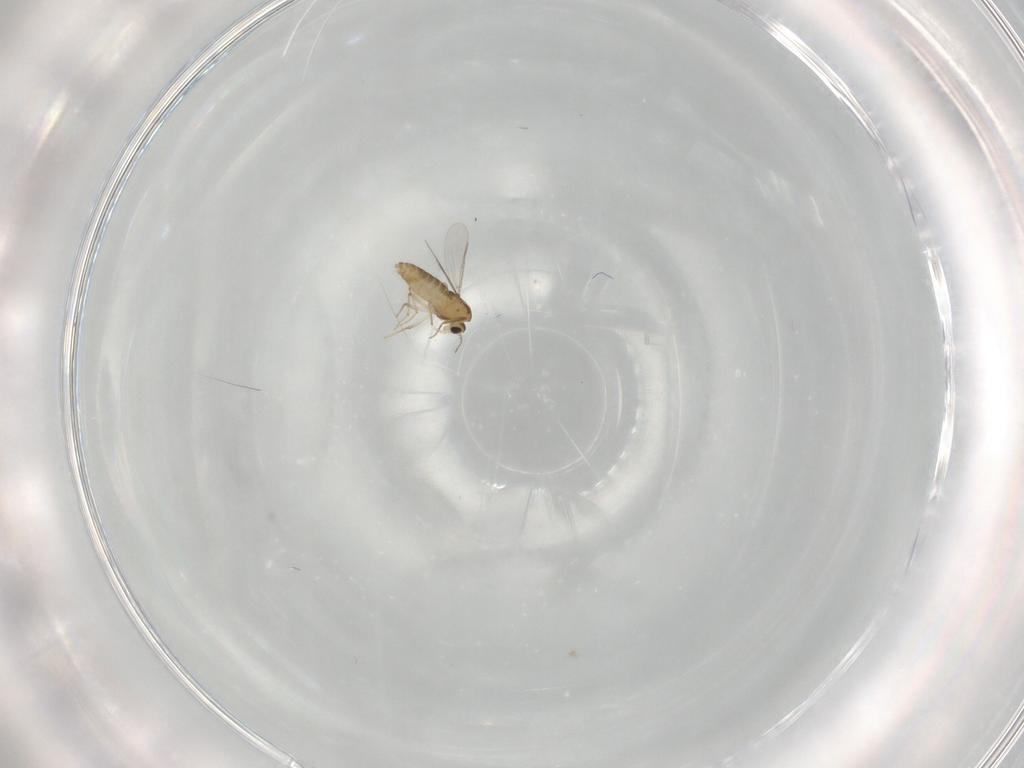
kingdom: Animalia
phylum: Arthropoda
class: Insecta
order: Diptera
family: Chironomidae
